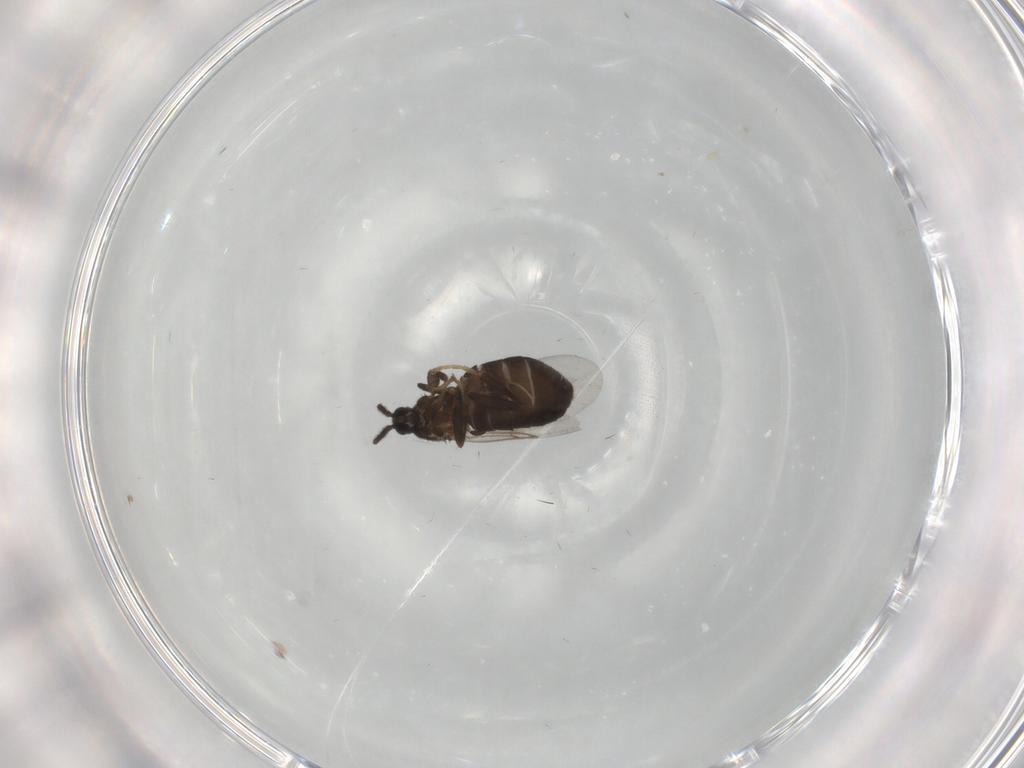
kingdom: Animalia
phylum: Arthropoda
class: Insecta
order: Diptera
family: Scatopsidae
